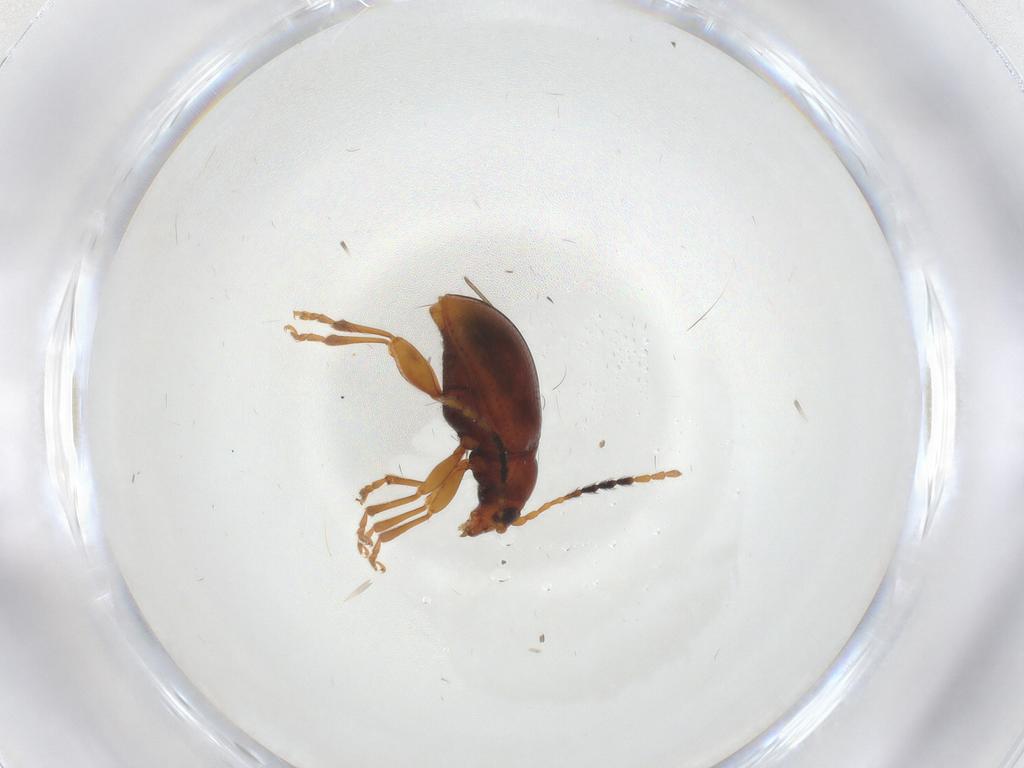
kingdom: Animalia
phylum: Arthropoda
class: Insecta
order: Coleoptera
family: Chrysomelidae
